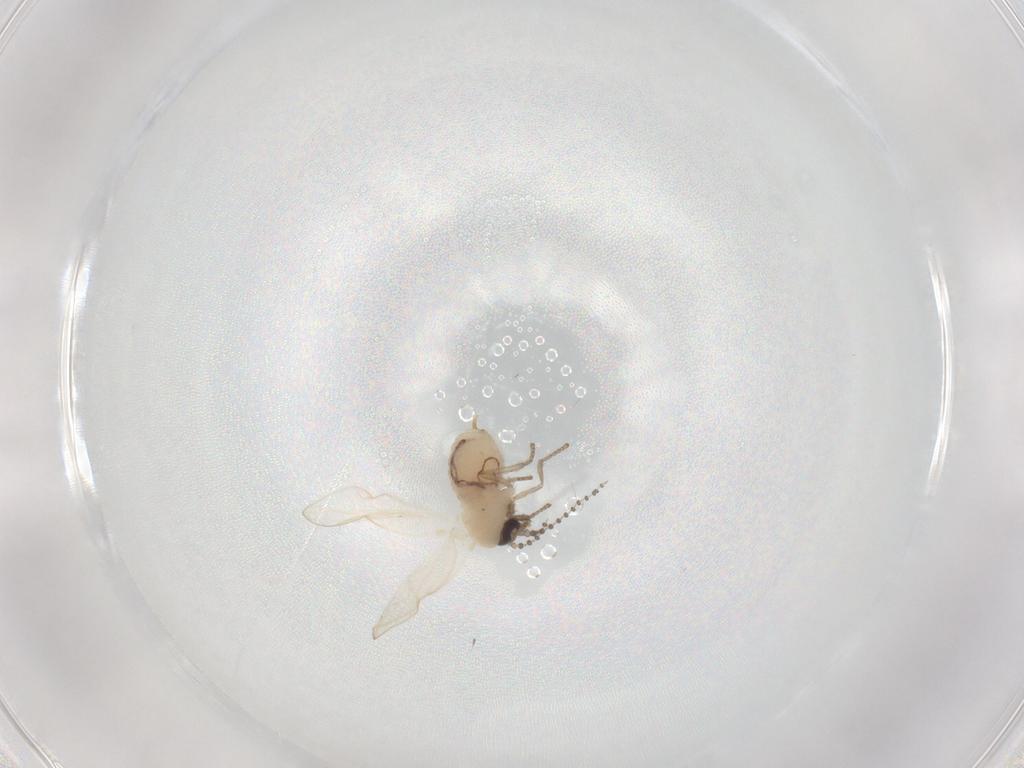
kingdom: Animalia
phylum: Arthropoda
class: Insecta
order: Diptera
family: Psychodidae
